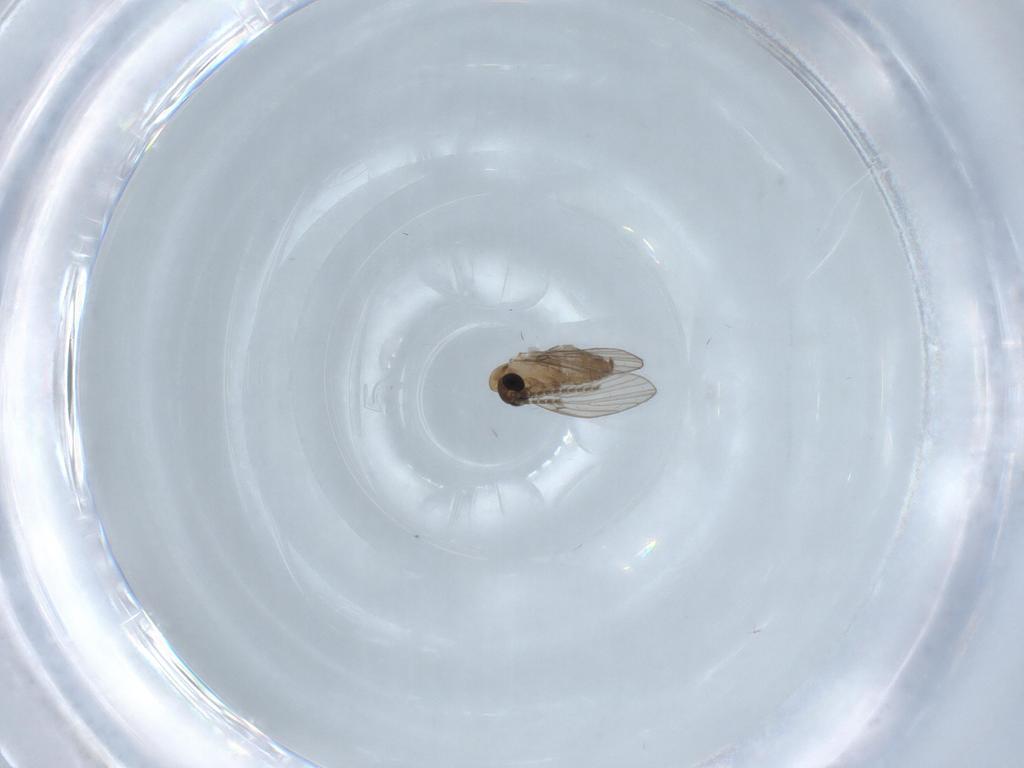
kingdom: Animalia
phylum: Arthropoda
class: Insecta
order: Diptera
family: Psychodidae
